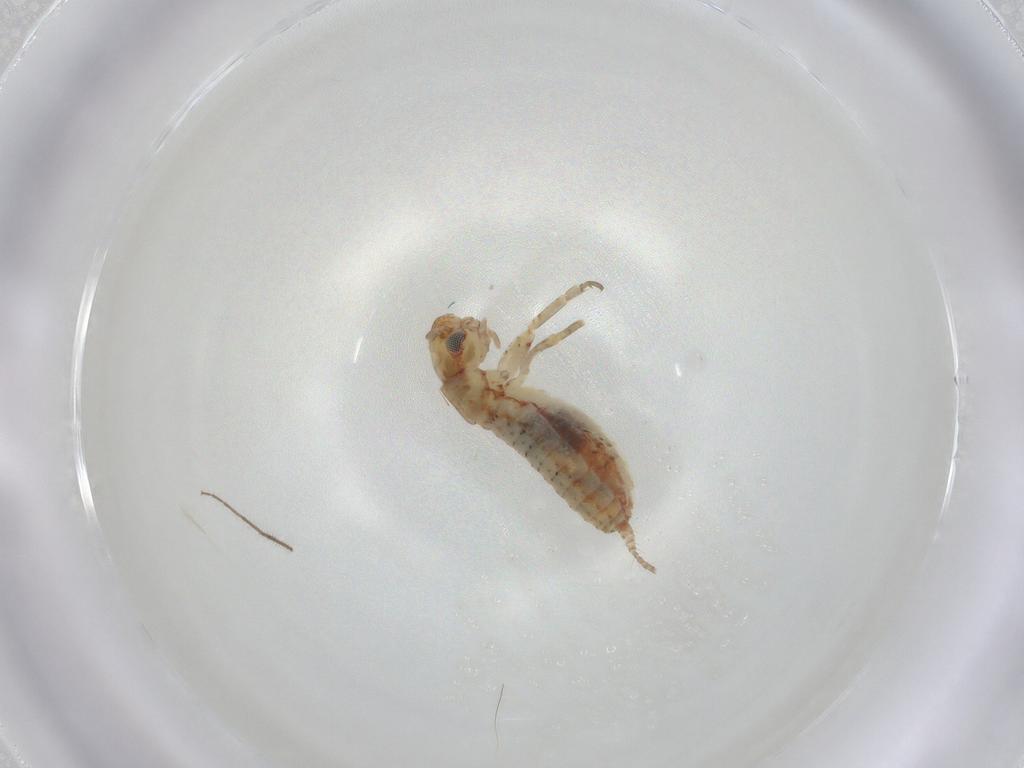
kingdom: Animalia
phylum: Arthropoda
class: Insecta
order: Orthoptera
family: Mogoplistidae
